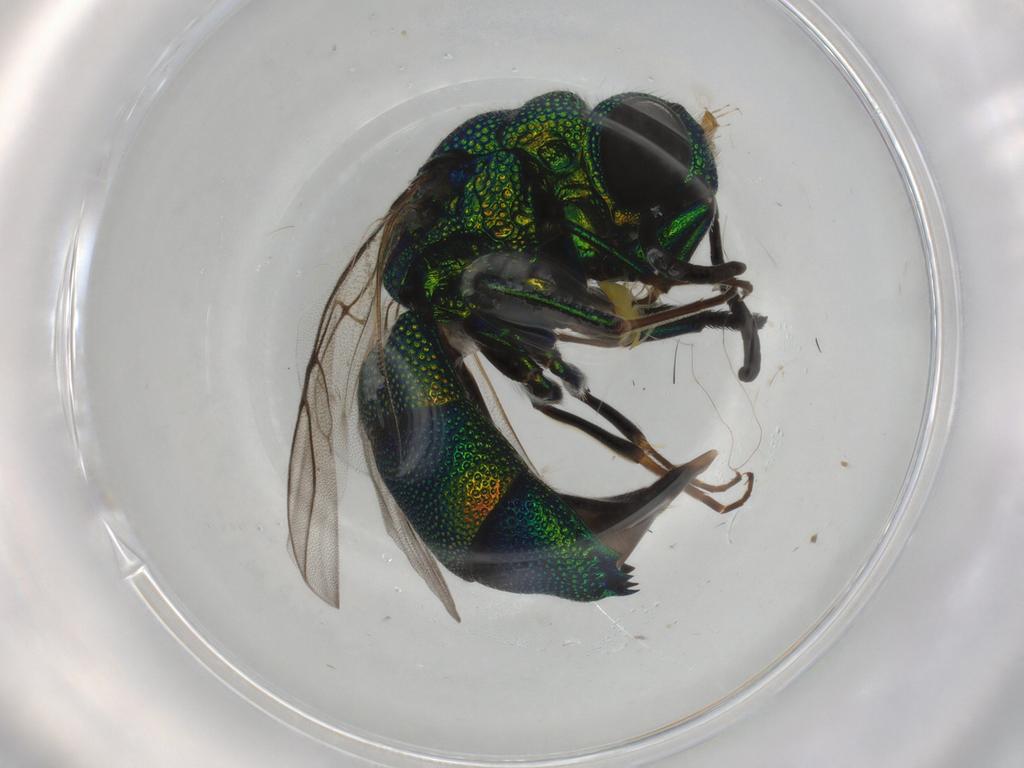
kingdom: Animalia
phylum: Arthropoda
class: Insecta
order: Hymenoptera
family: Chrysididae
